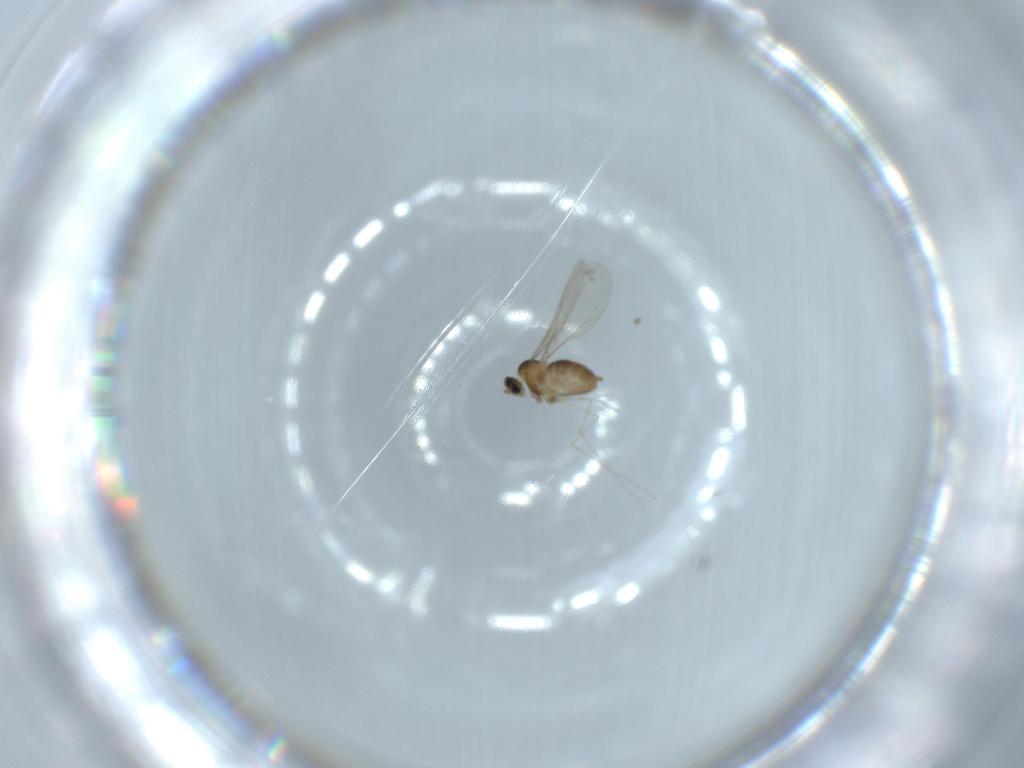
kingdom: Animalia
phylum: Arthropoda
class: Insecta
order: Diptera
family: Cecidomyiidae
